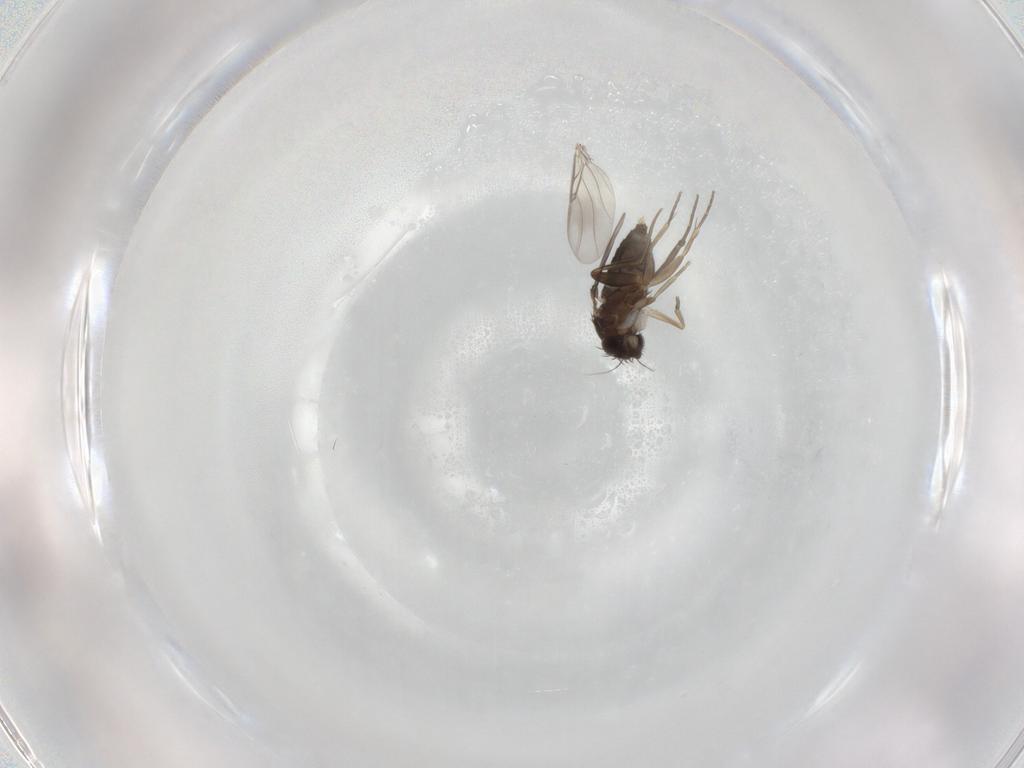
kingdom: Animalia
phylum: Arthropoda
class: Insecta
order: Diptera
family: Phoridae
